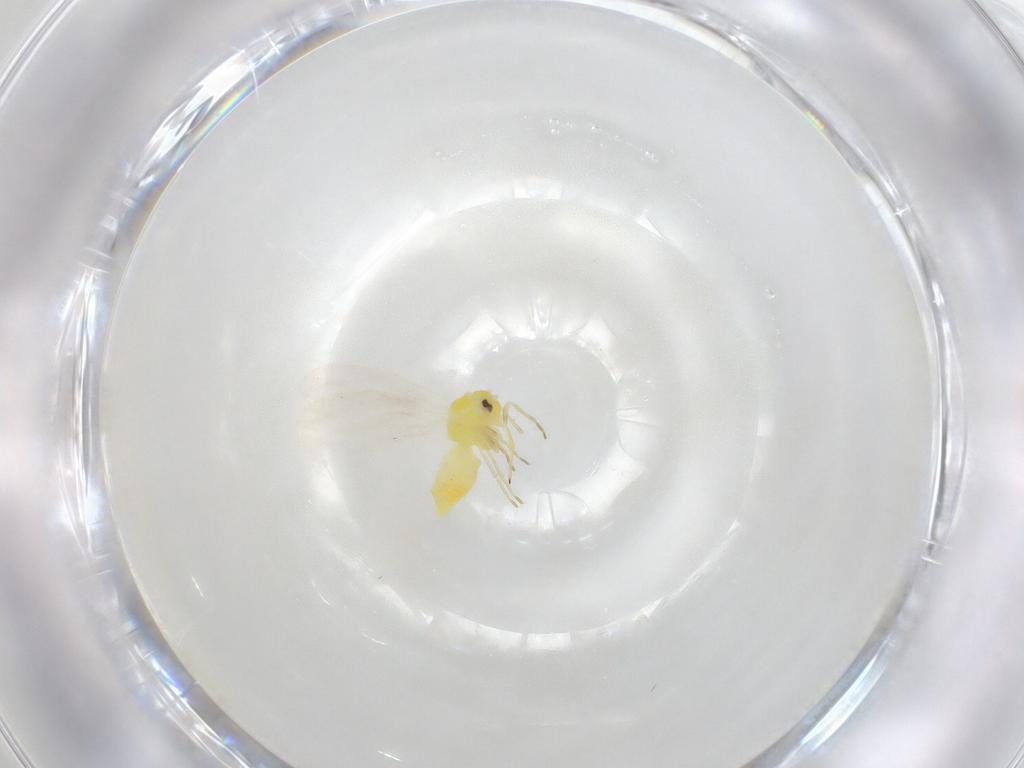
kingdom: Animalia
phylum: Arthropoda
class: Insecta
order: Hemiptera
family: Aleyrodidae
